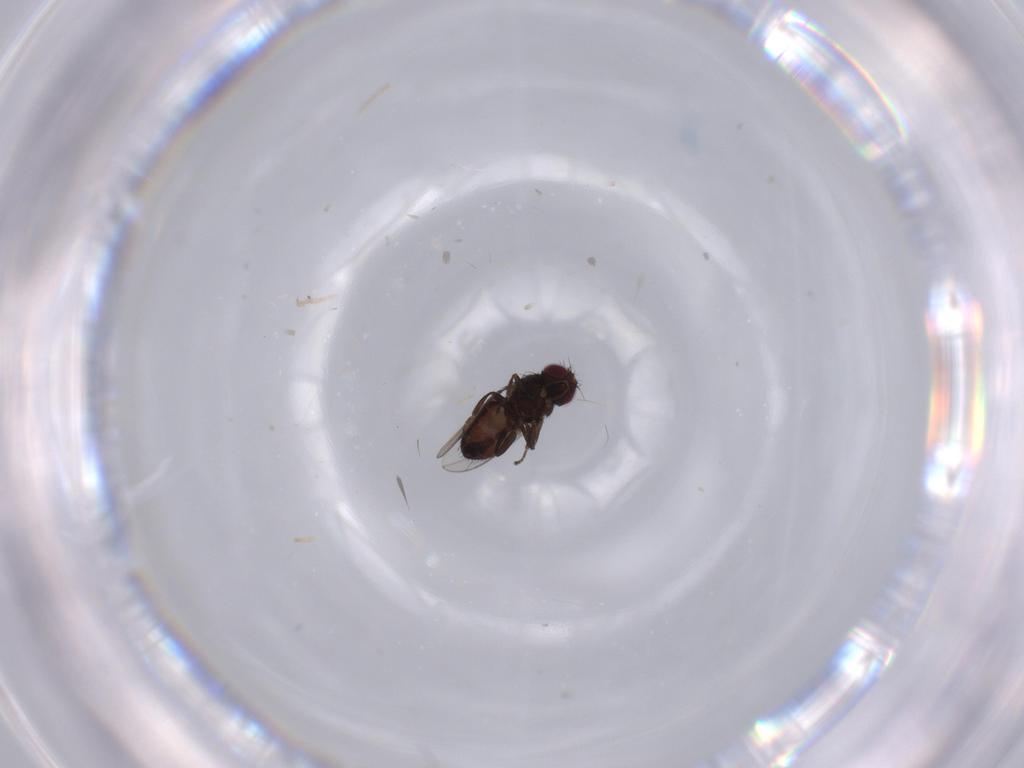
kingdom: Animalia
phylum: Arthropoda
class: Insecta
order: Diptera
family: Carnidae
